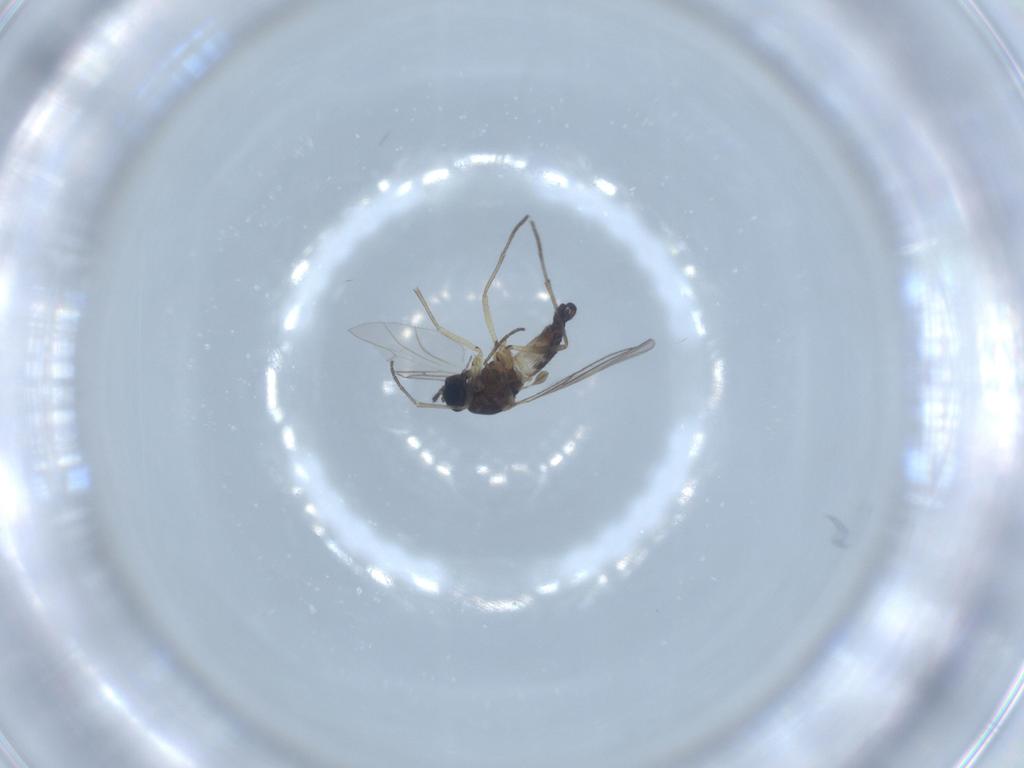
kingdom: Animalia
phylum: Arthropoda
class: Insecta
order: Diptera
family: Sciaridae
